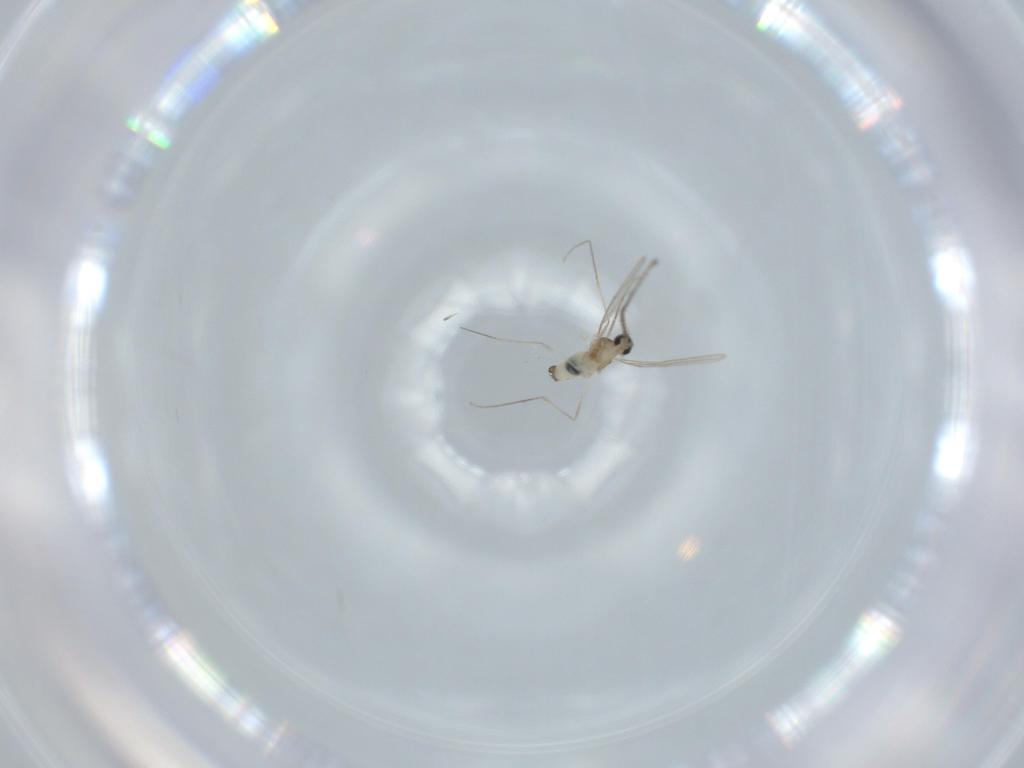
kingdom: Animalia
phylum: Arthropoda
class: Insecta
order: Diptera
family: Cecidomyiidae
